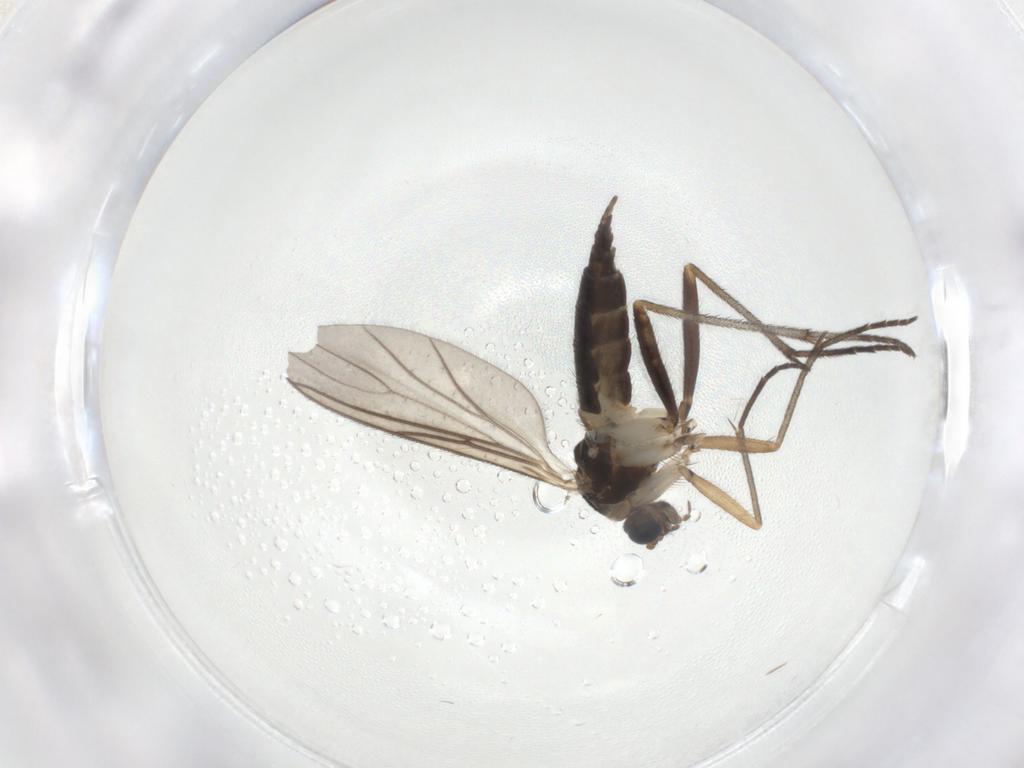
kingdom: Animalia
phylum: Arthropoda
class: Insecta
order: Diptera
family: Sciaridae
